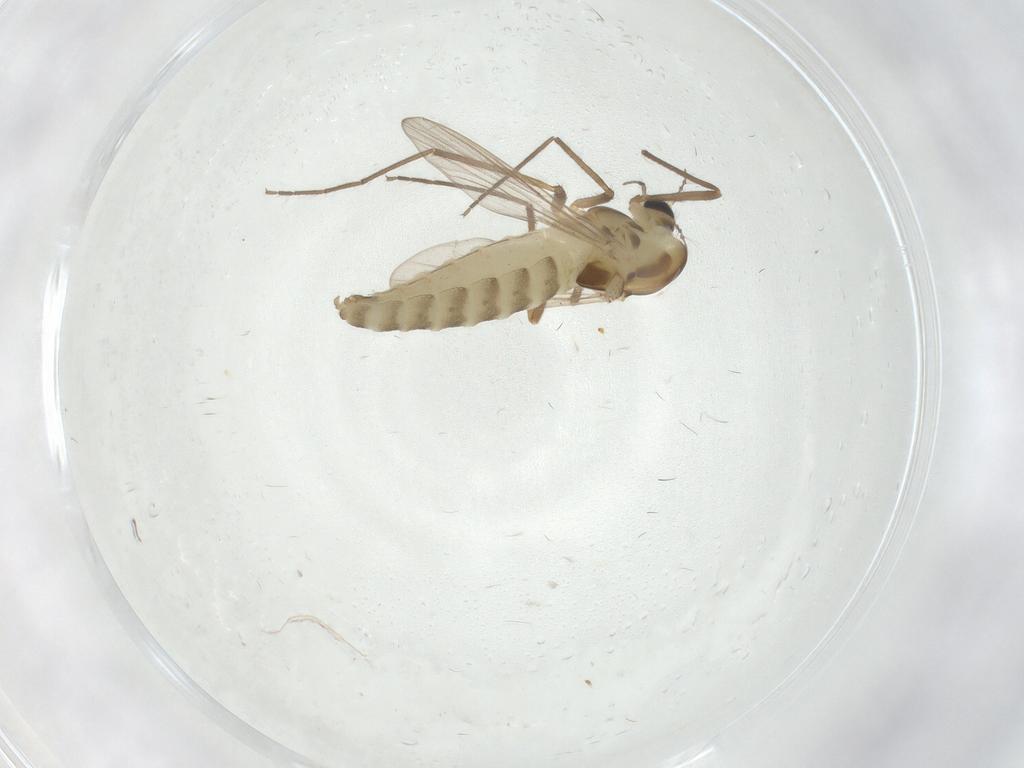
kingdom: Animalia
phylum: Arthropoda
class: Insecta
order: Diptera
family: Chironomidae
